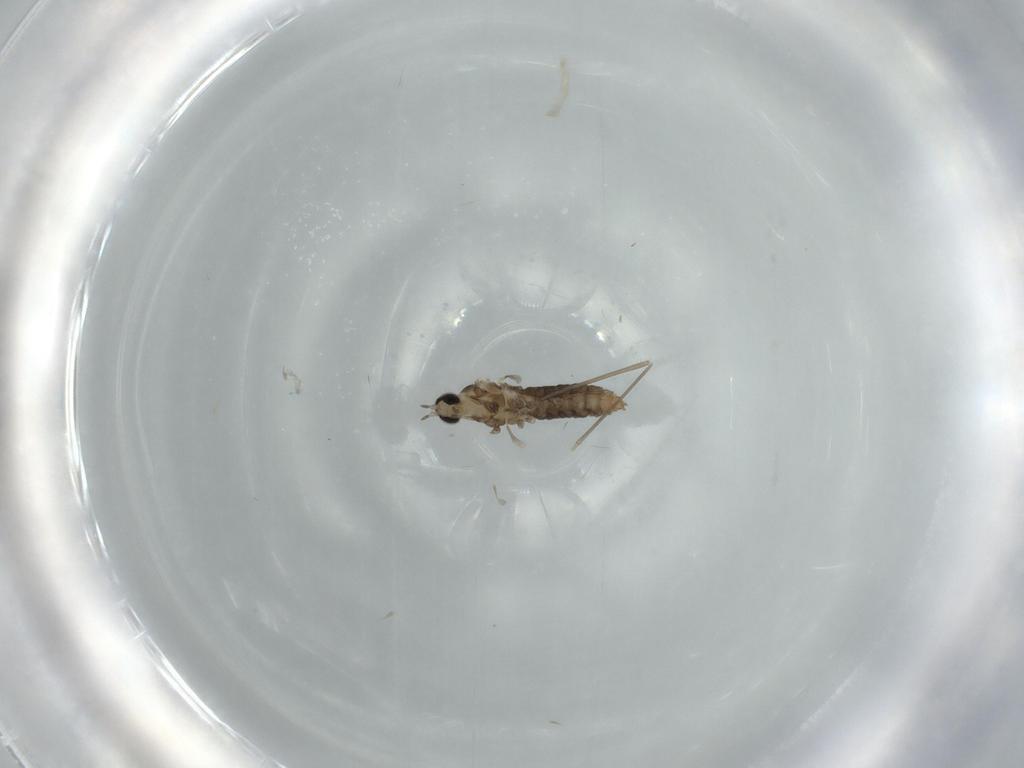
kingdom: Animalia
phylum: Arthropoda
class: Insecta
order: Diptera
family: Cecidomyiidae
